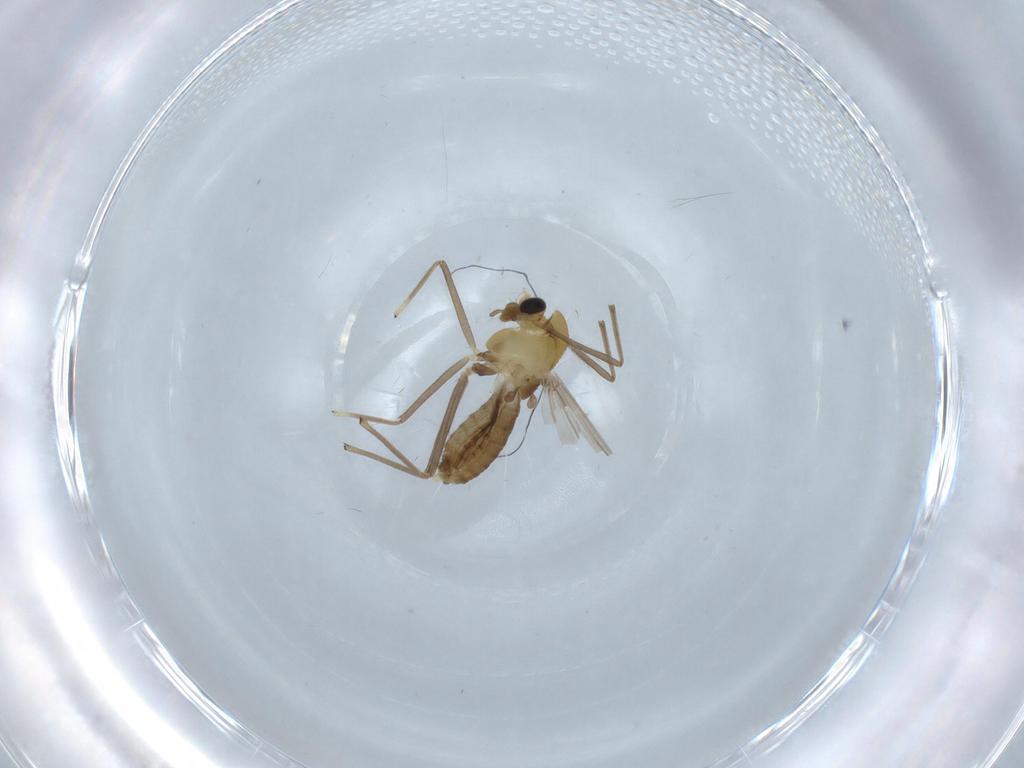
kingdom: Animalia
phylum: Arthropoda
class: Insecta
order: Diptera
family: Chironomidae
